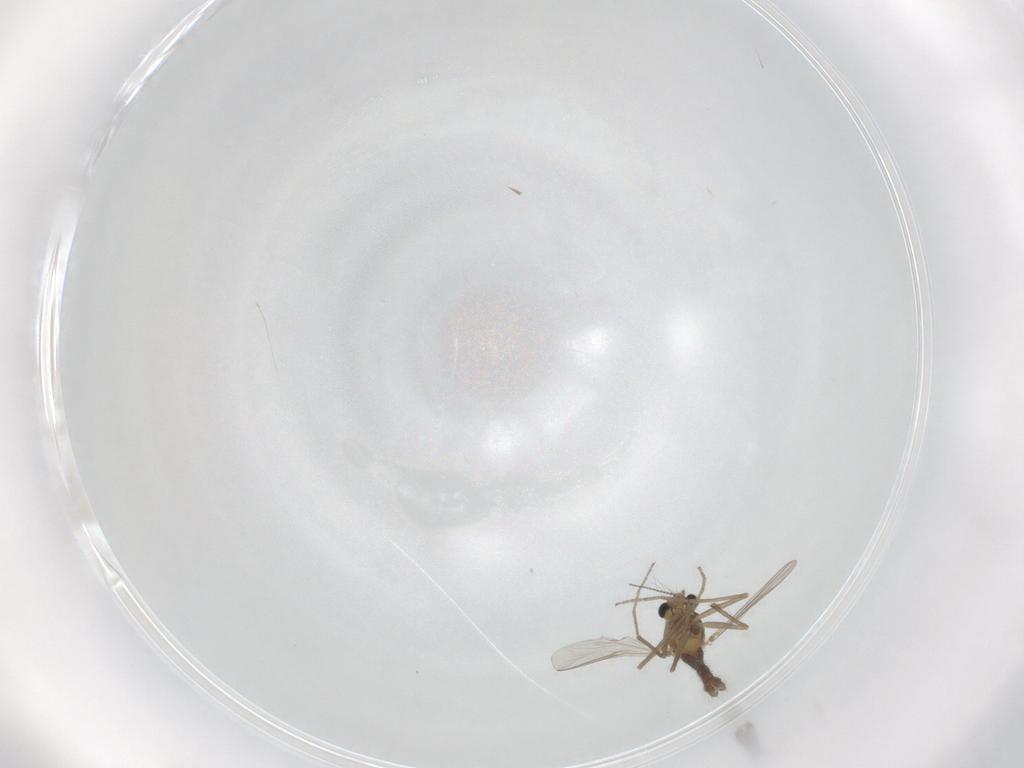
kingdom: Animalia
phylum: Arthropoda
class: Insecta
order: Diptera
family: Chironomidae
